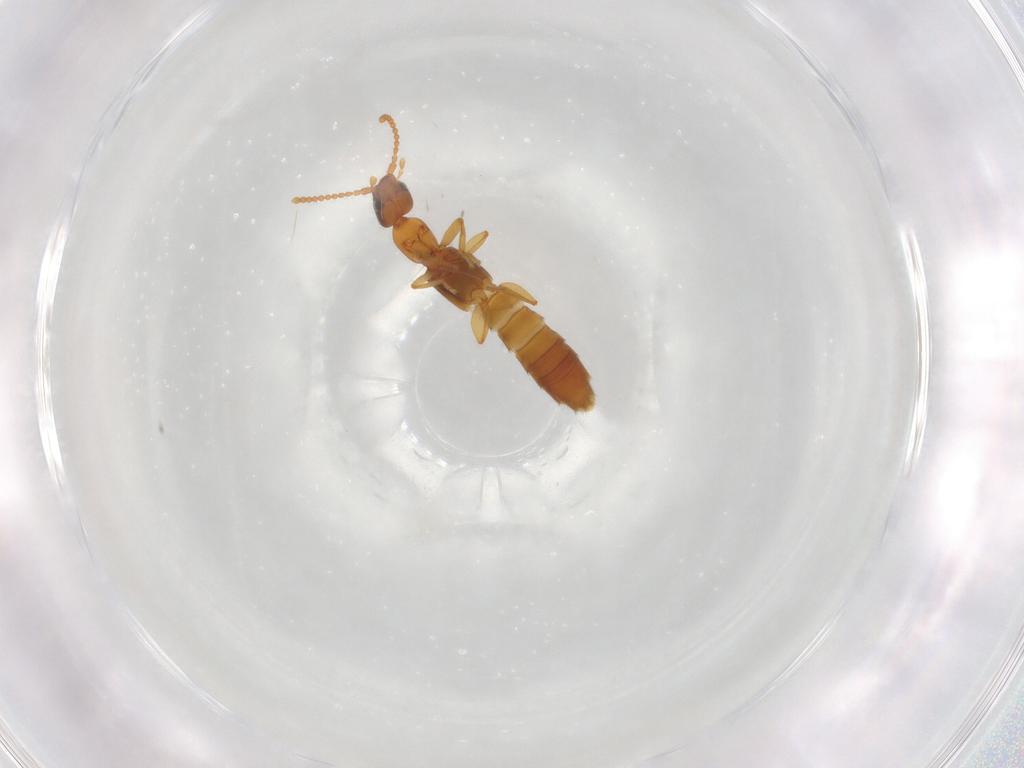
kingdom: Animalia
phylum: Arthropoda
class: Insecta
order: Coleoptera
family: Staphylinidae
